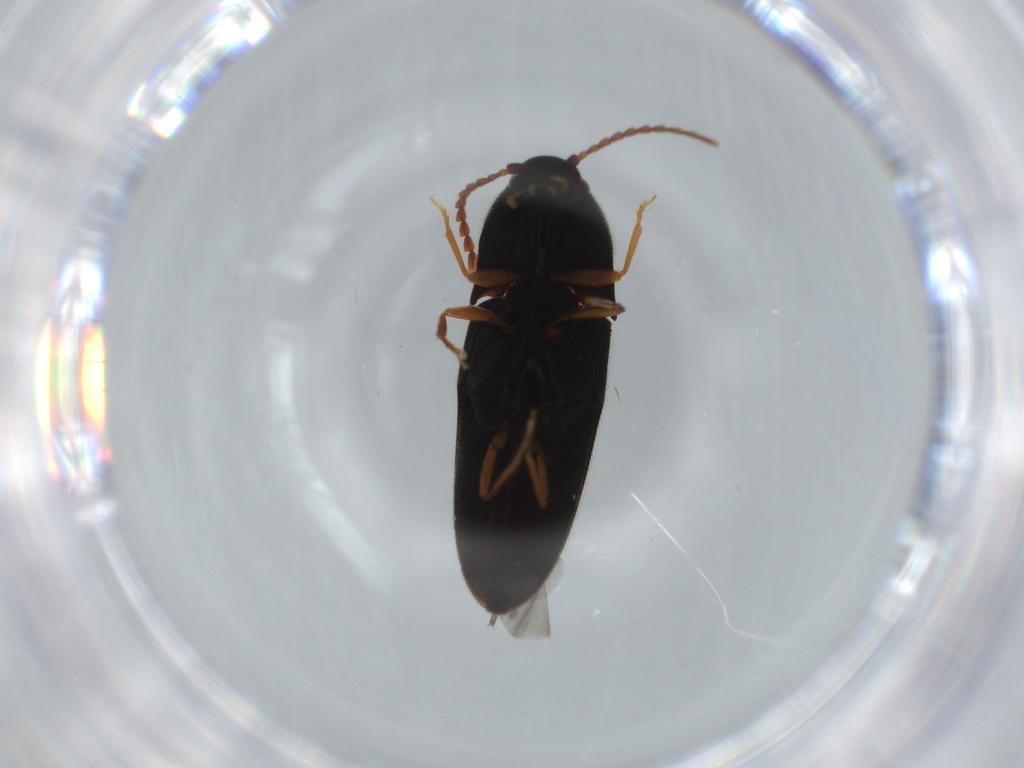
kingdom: Animalia
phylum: Arthropoda
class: Insecta
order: Coleoptera
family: Elateridae
